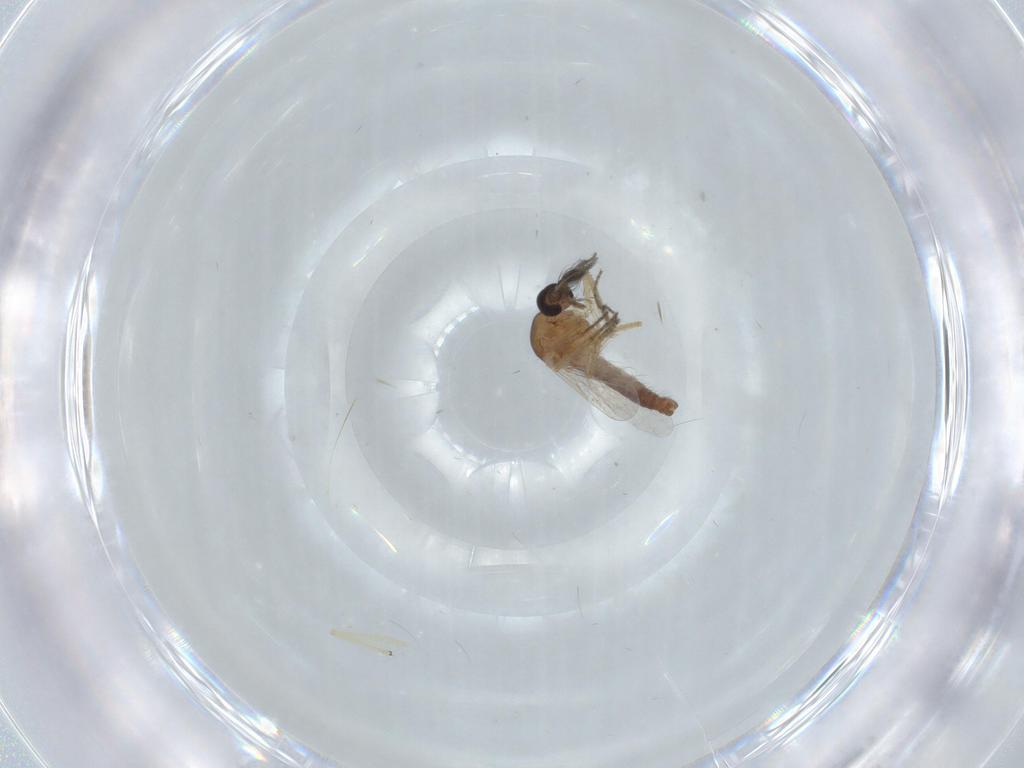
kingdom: Animalia
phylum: Arthropoda
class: Insecta
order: Diptera
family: Ceratopogonidae
